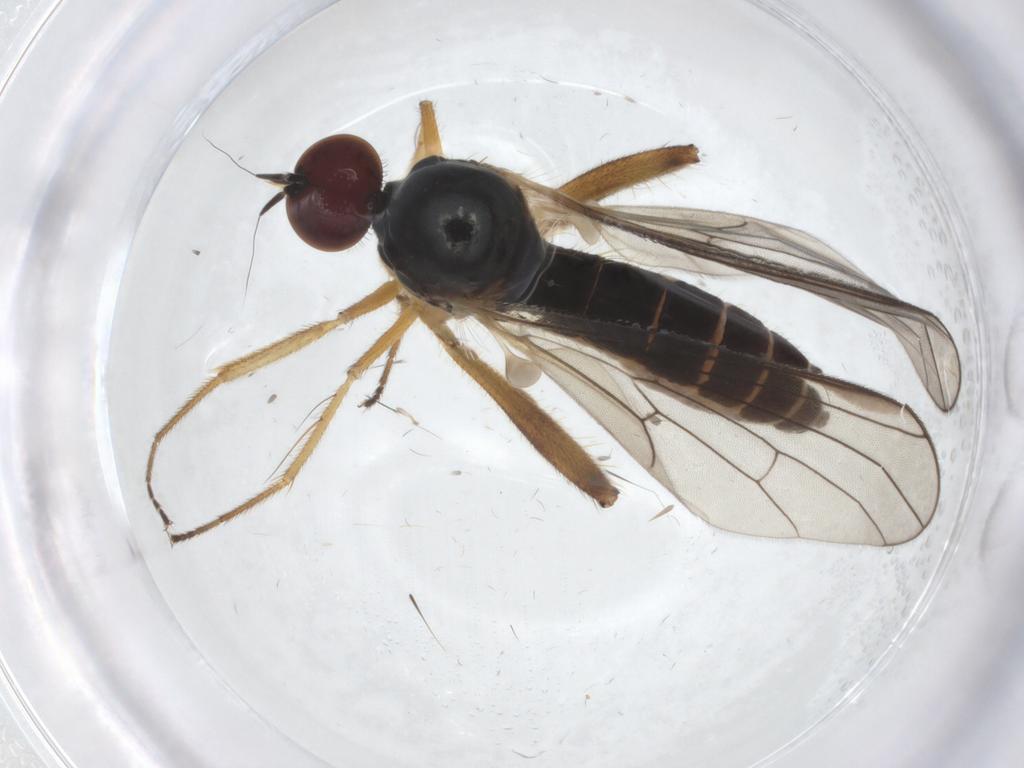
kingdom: Animalia
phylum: Arthropoda
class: Insecta
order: Diptera
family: Hybotidae
